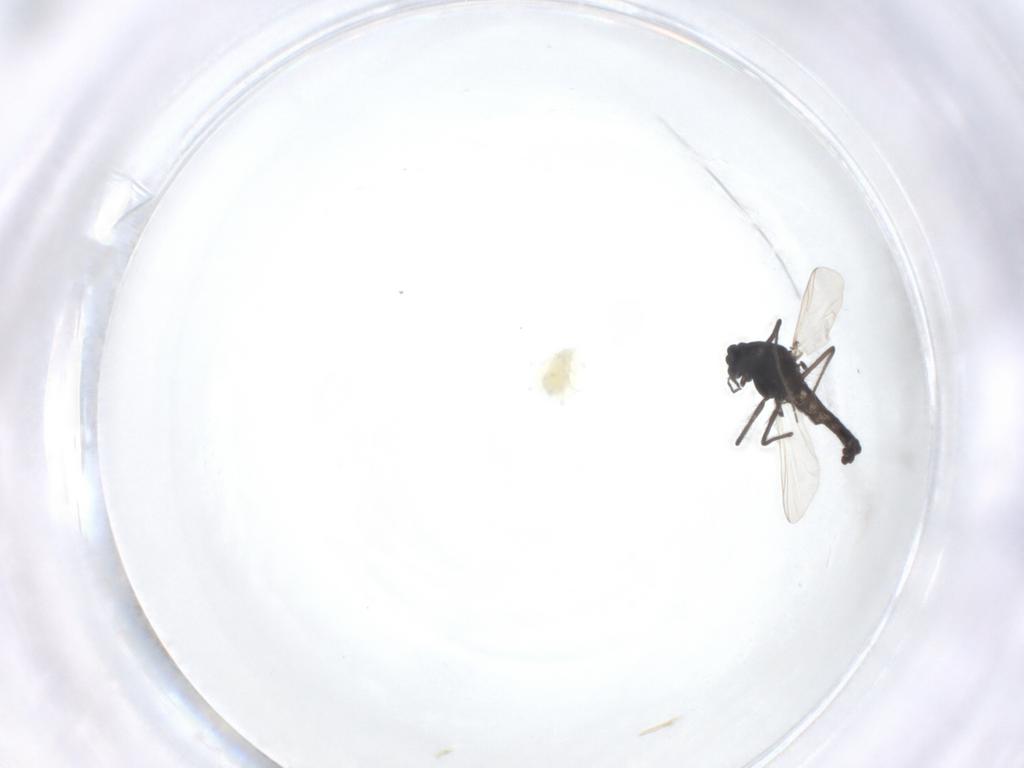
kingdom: Animalia
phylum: Arthropoda
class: Insecta
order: Diptera
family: Chironomidae
